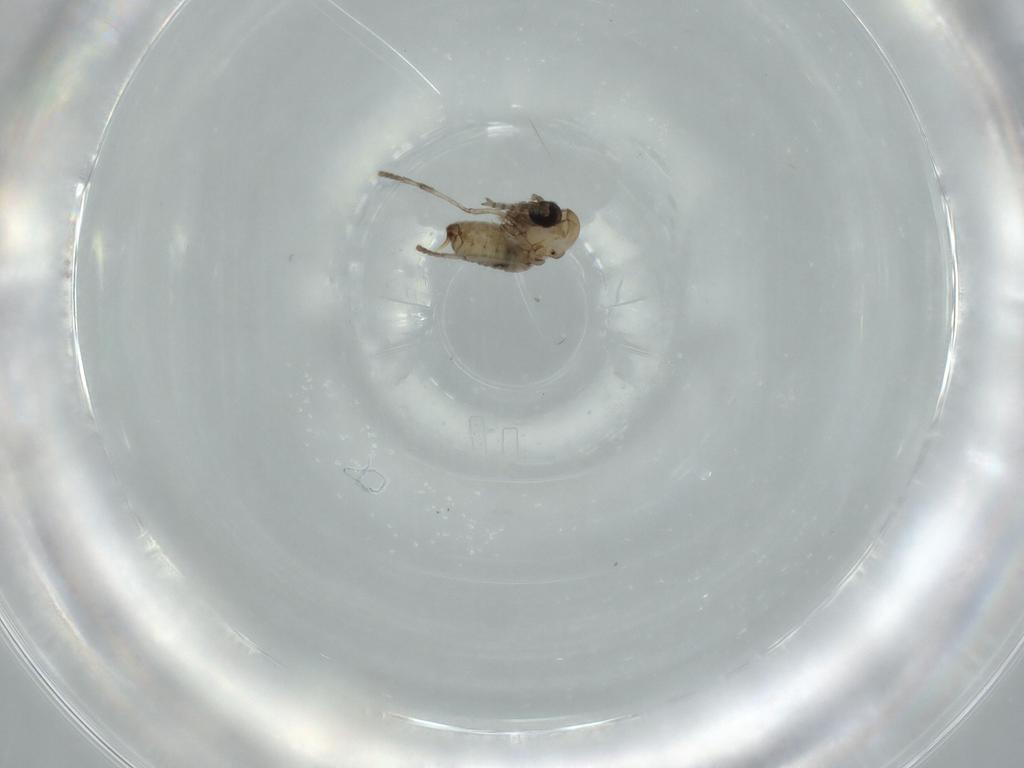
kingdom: Animalia
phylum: Arthropoda
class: Insecta
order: Diptera
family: Psychodidae
